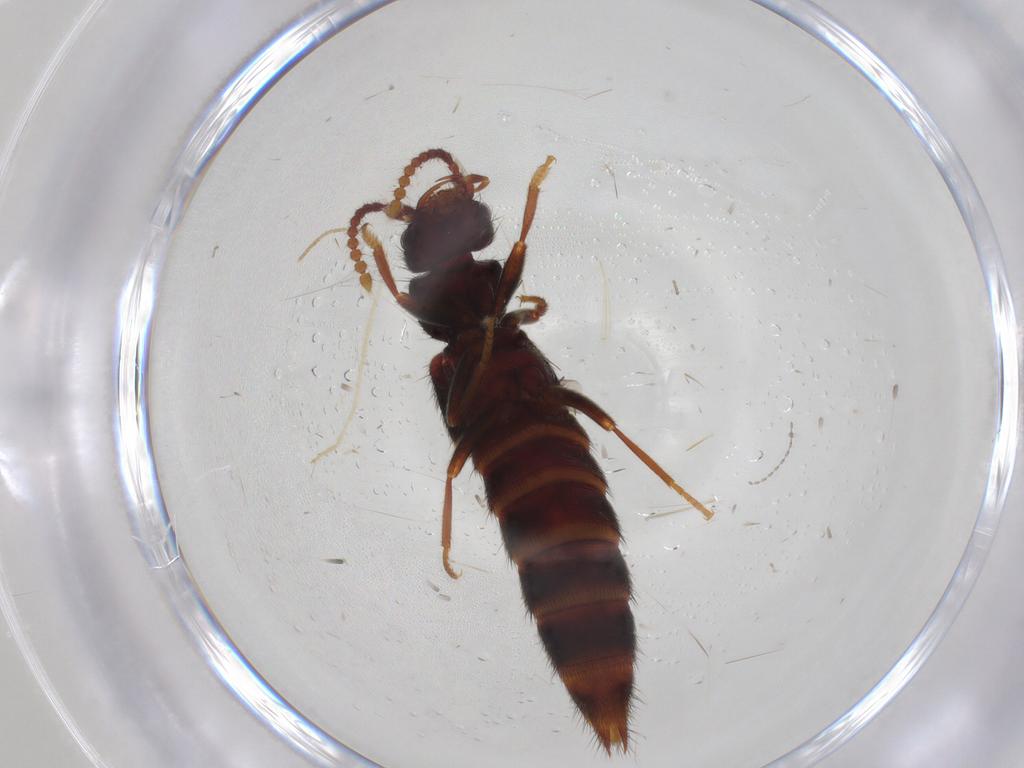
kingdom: Animalia
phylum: Arthropoda
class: Insecta
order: Coleoptera
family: Staphylinidae
